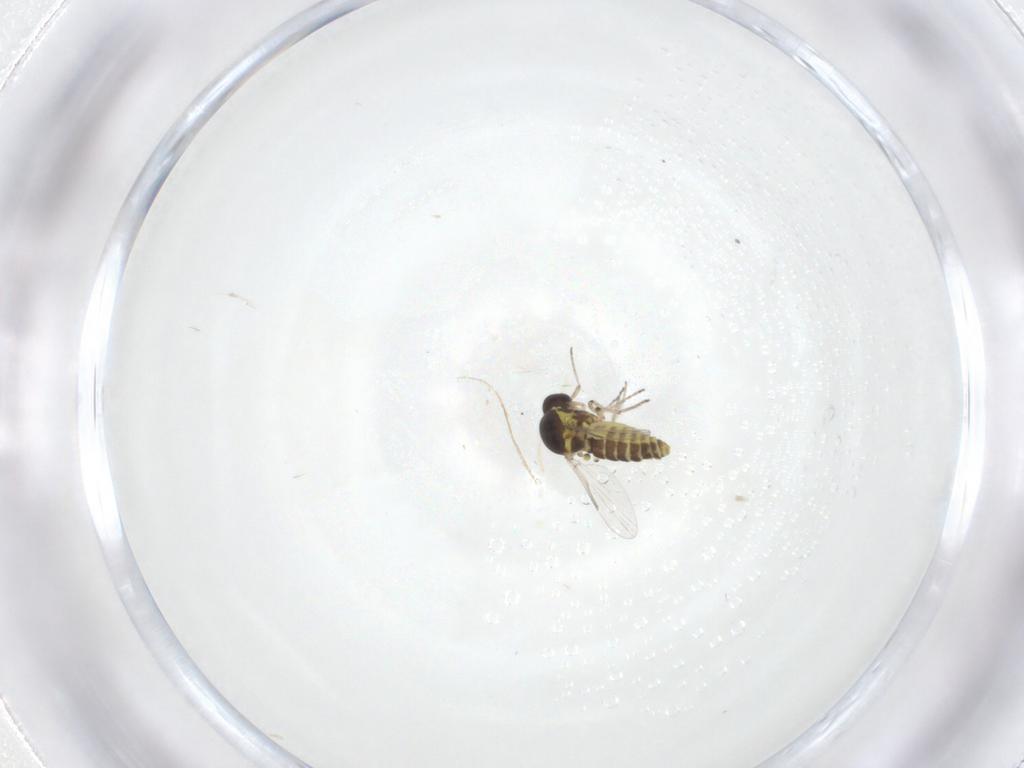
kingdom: Animalia
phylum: Arthropoda
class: Insecta
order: Diptera
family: Ceratopogonidae
